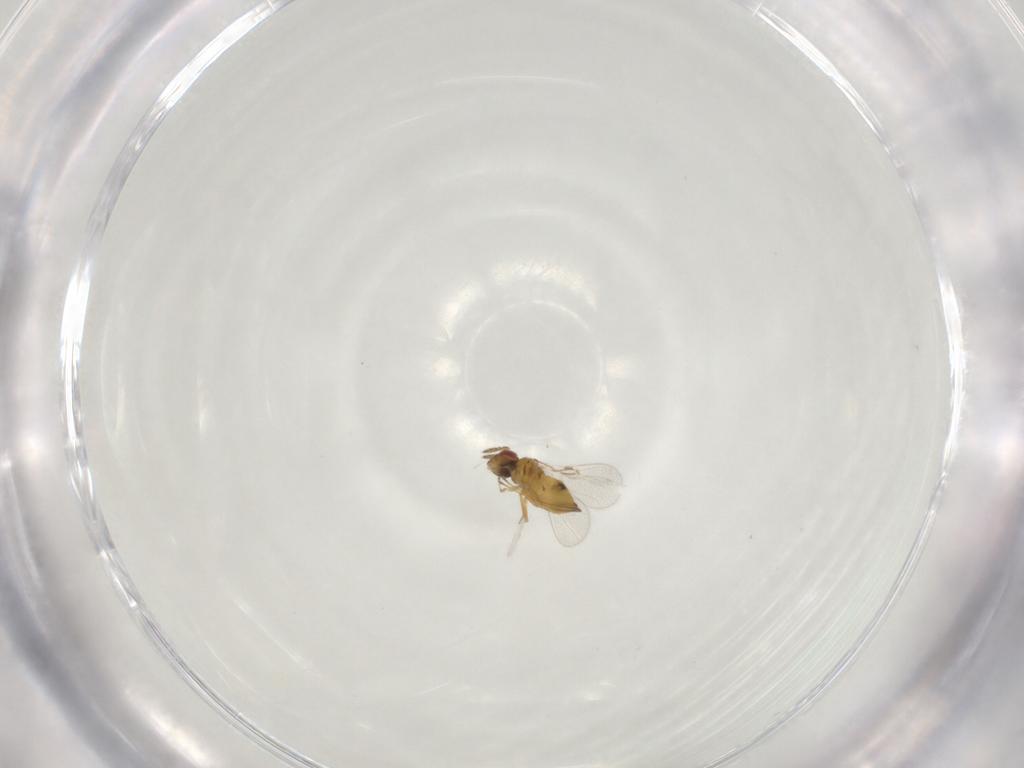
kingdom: Animalia
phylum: Arthropoda
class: Insecta
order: Hymenoptera
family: Trichogrammatidae
